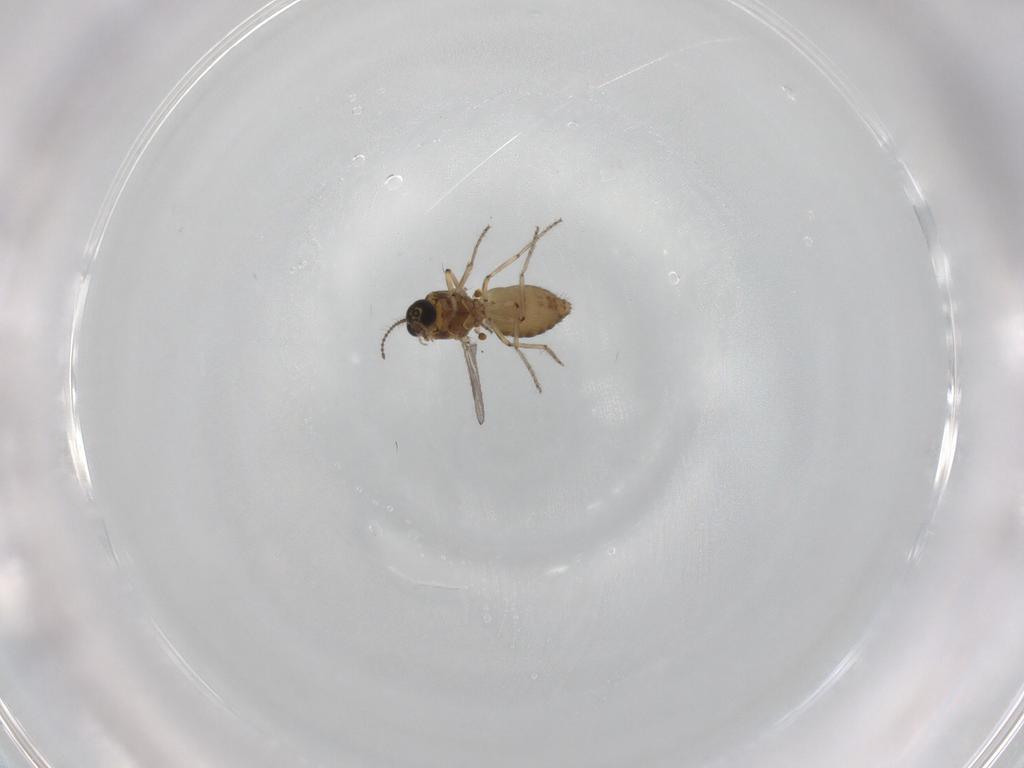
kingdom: Animalia
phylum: Arthropoda
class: Insecta
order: Diptera
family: Ceratopogonidae
